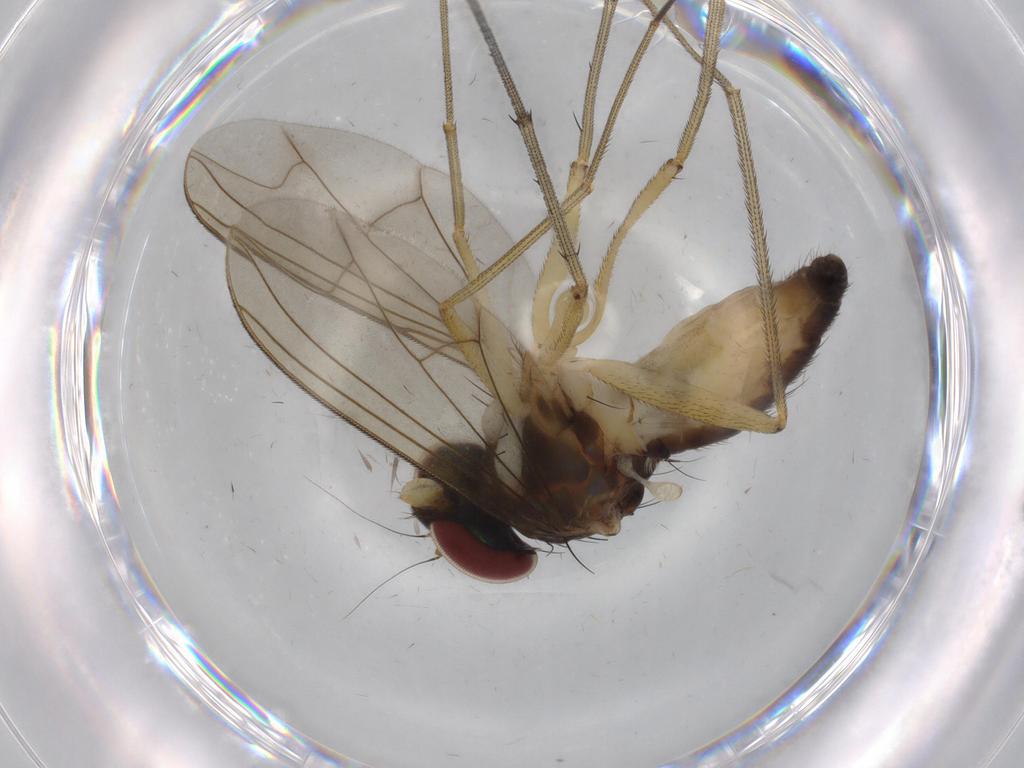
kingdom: Animalia
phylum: Arthropoda
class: Insecta
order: Diptera
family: Dolichopodidae
